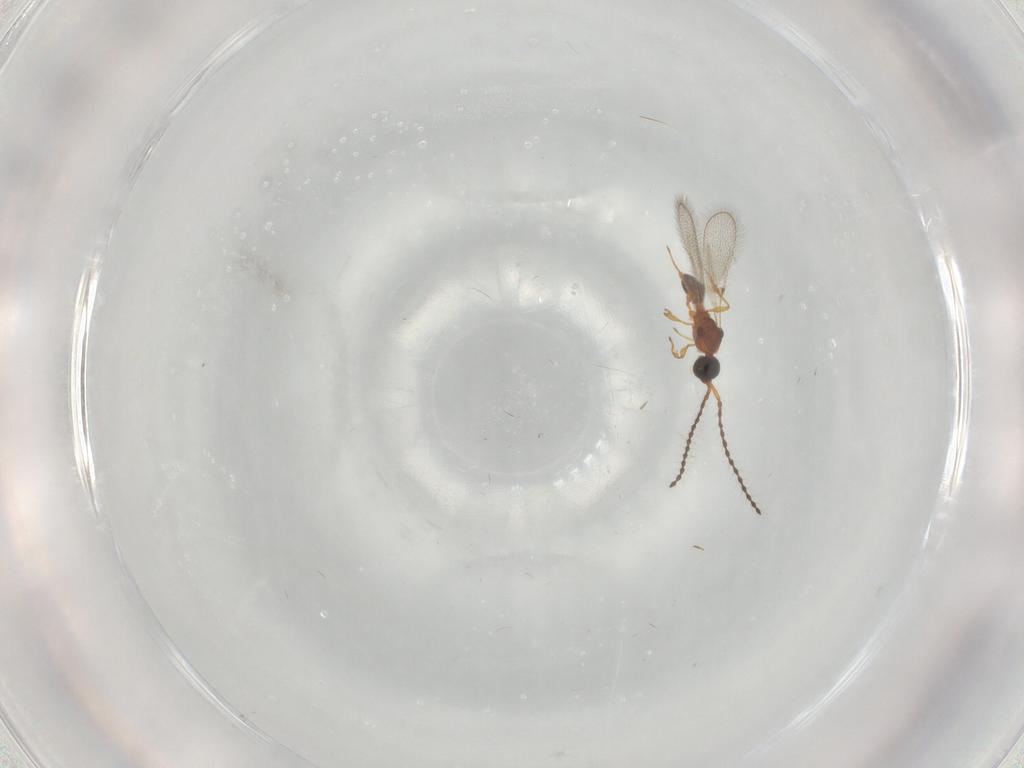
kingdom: Animalia
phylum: Arthropoda
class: Insecta
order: Hymenoptera
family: Diapriidae
